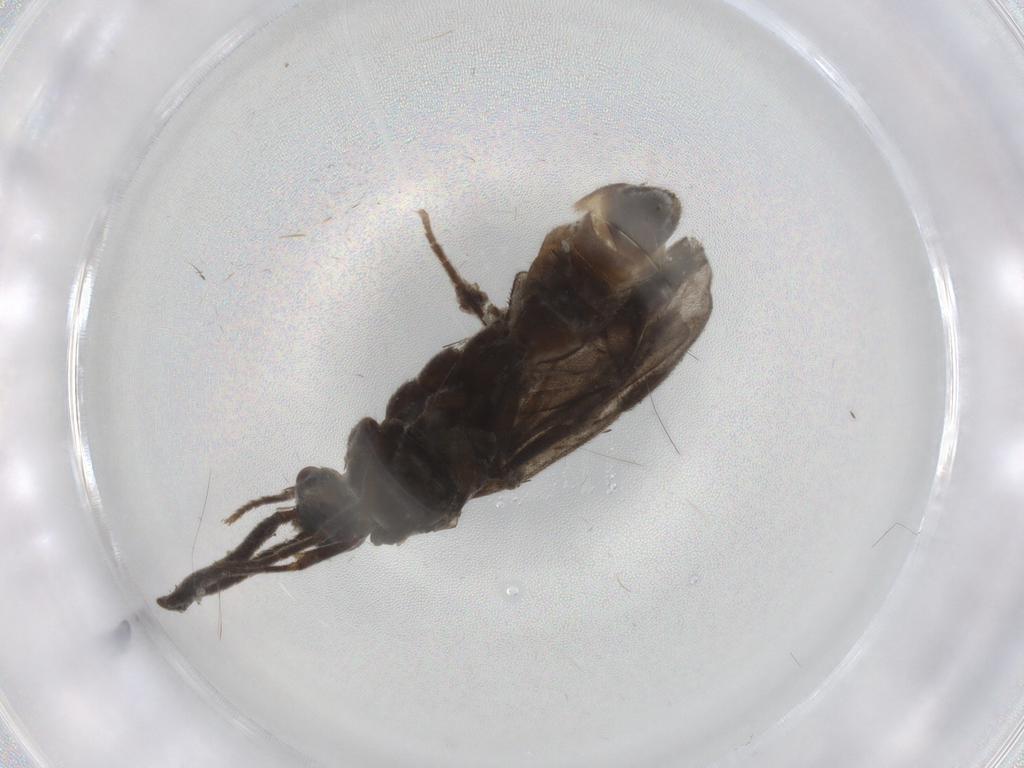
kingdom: Animalia
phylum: Arthropoda
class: Insecta
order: Diptera
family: Chironomidae
